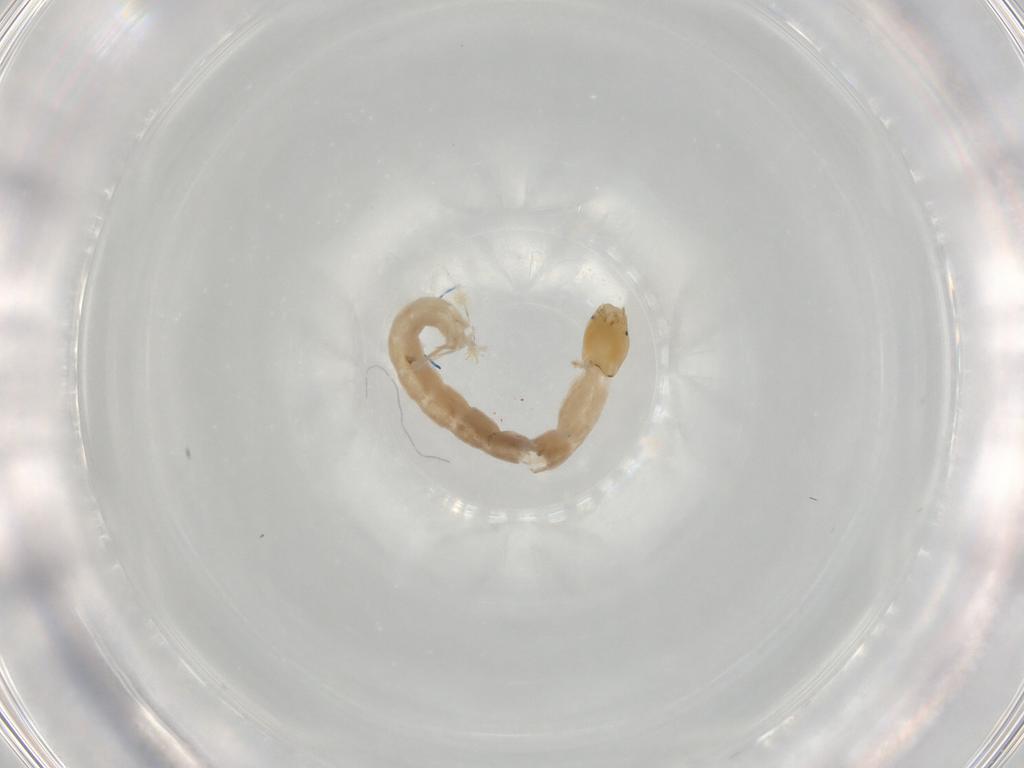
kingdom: Animalia
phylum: Arthropoda
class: Insecta
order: Diptera
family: Chironomidae
